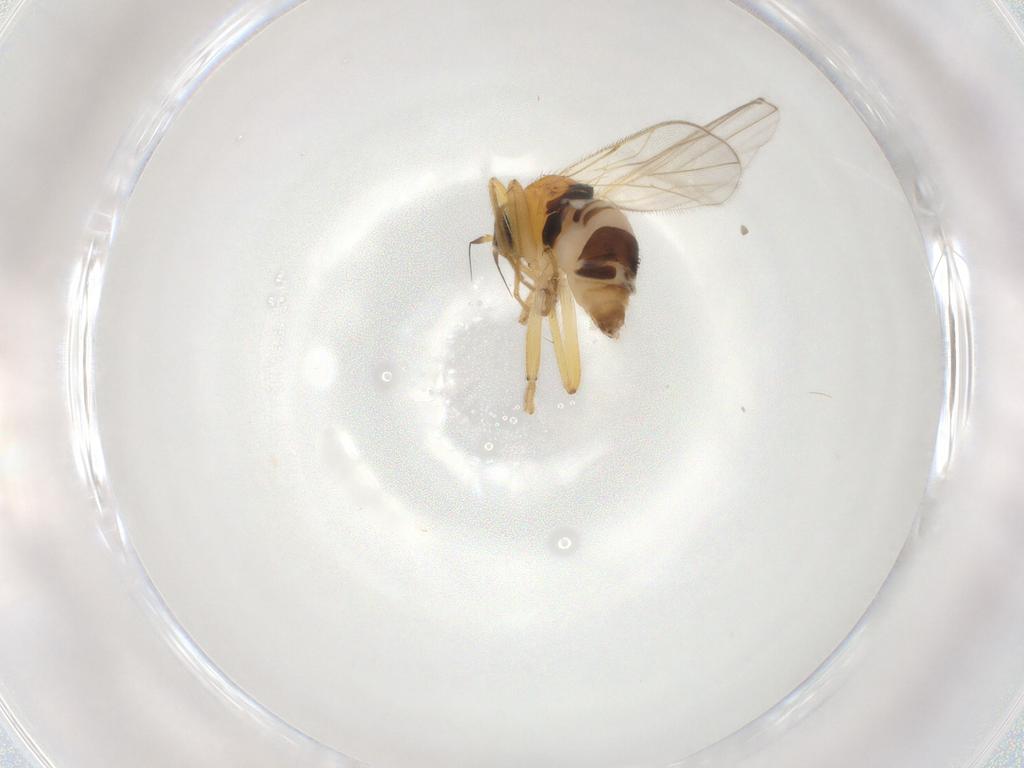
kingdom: Animalia
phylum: Arthropoda
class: Insecta
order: Diptera
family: Hybotidae
